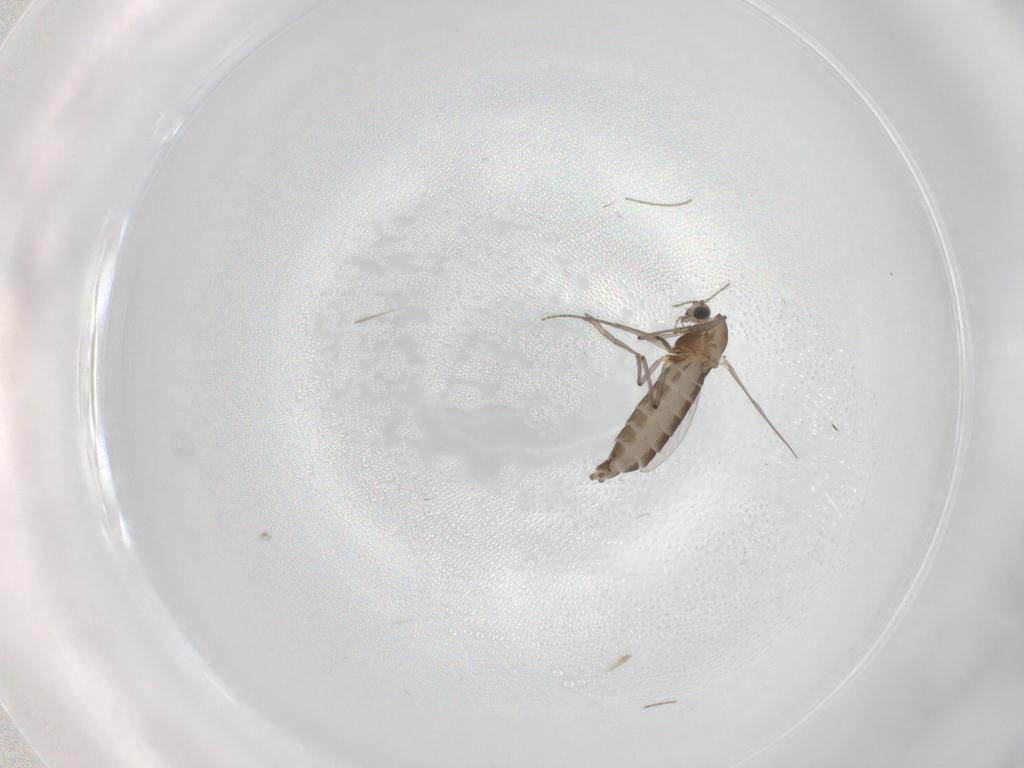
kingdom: Animalia
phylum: Arthropoda
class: Insecta
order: Diptera
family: Chironomidae
